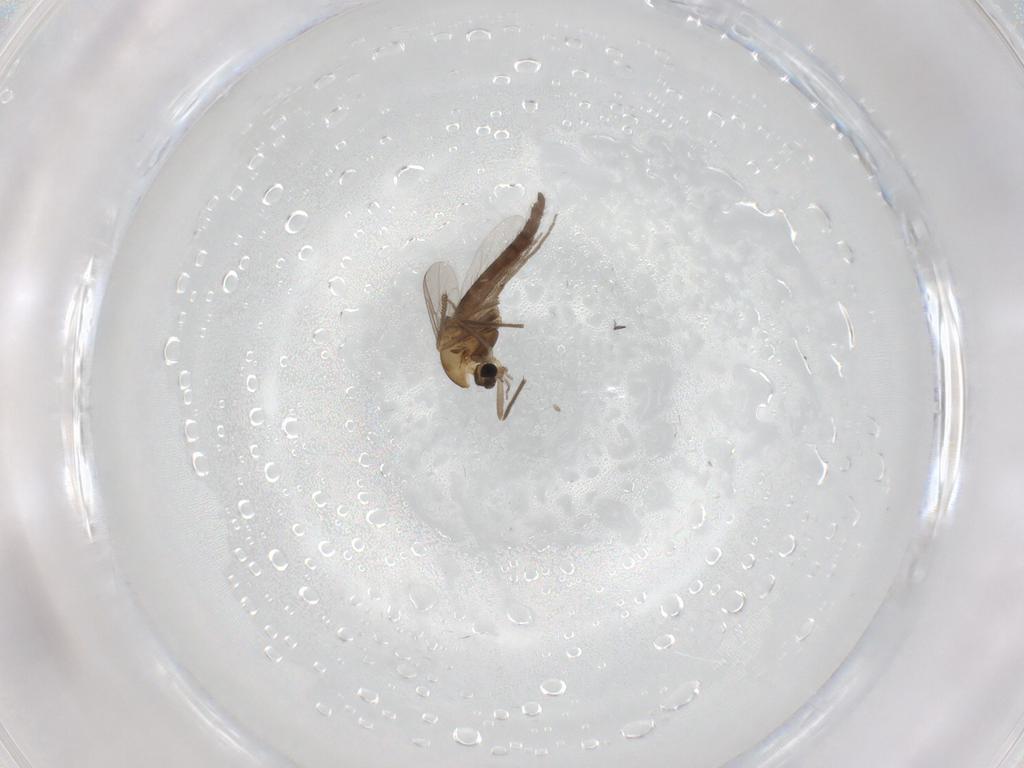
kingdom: Animalia
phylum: Arthropoda
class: Insecta
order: Diptera
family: Chironomidae
